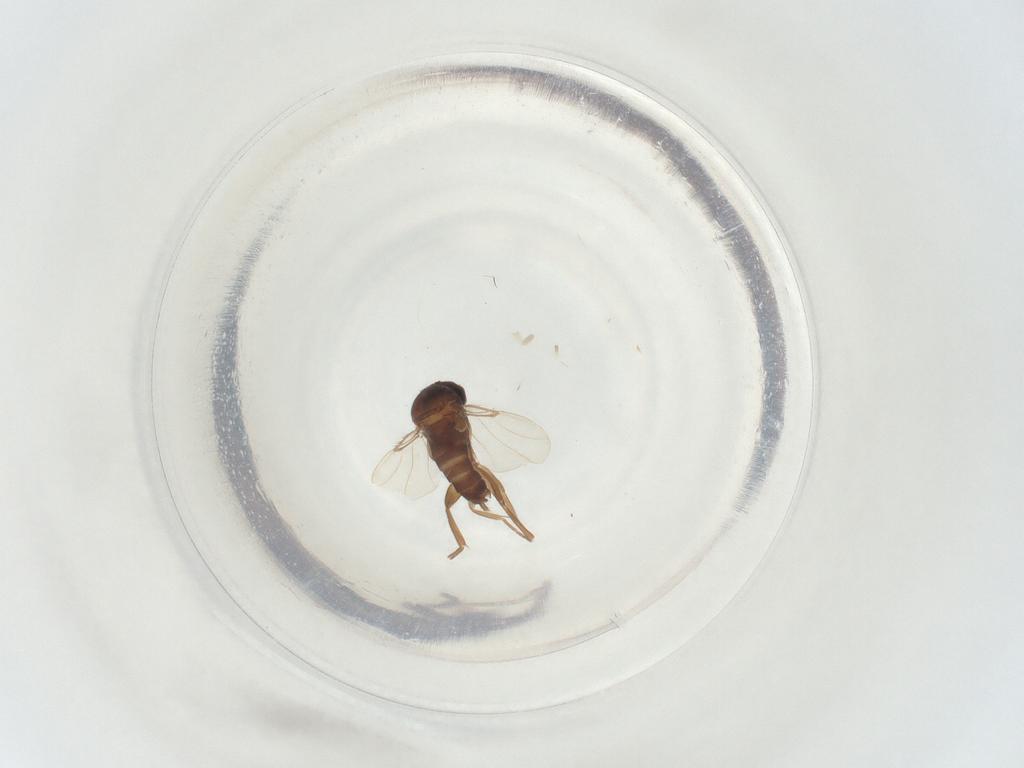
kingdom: Animalia
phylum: Arthropoda
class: Insecta
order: Diptera
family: Phoridae
